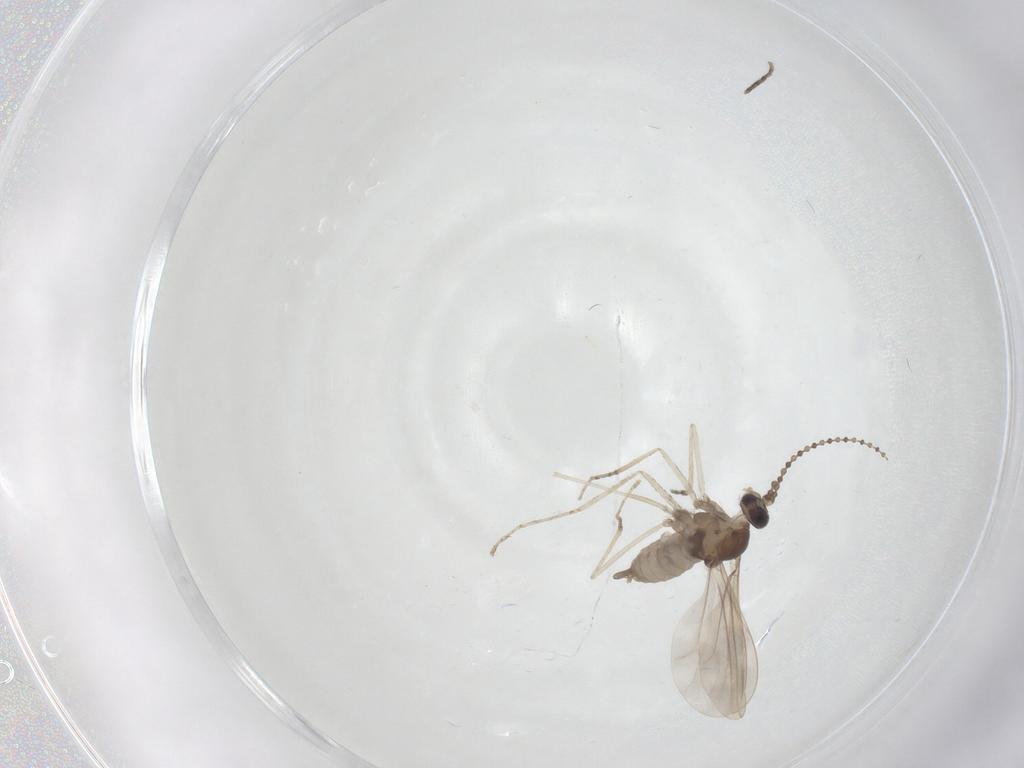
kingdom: Animalia
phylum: Arthropoda
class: Insecta
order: Diptera
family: Cecidomyiidae
